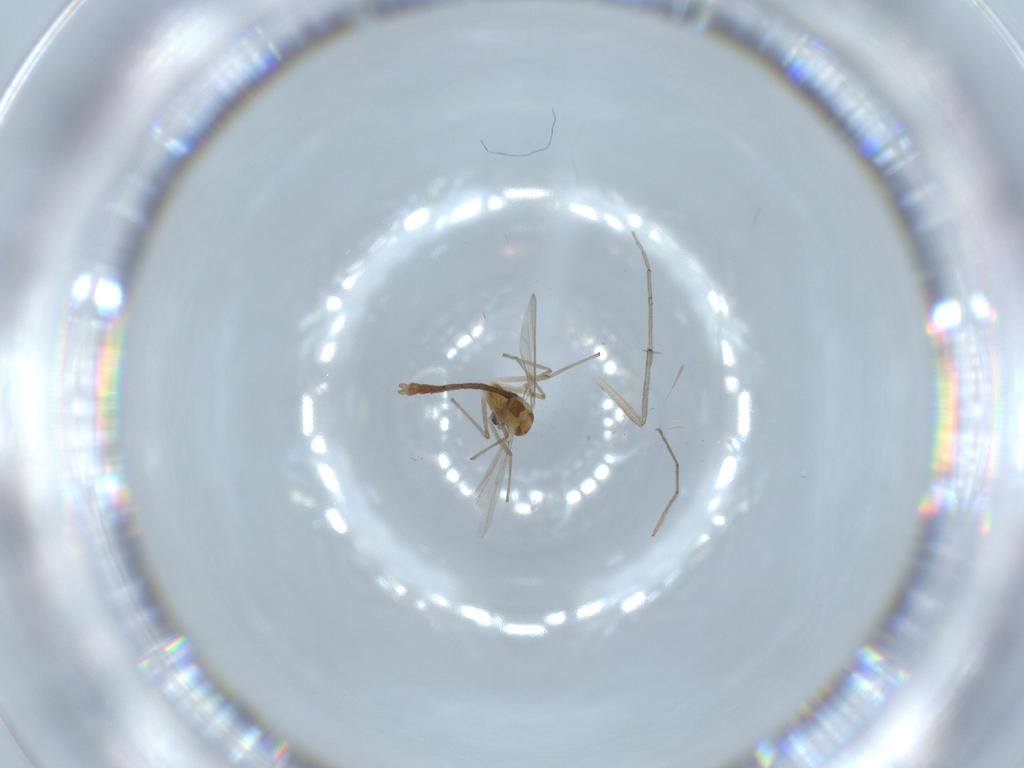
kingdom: Animalia
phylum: Arthropoda
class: Insecta
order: Diptera
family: Chironomidae
